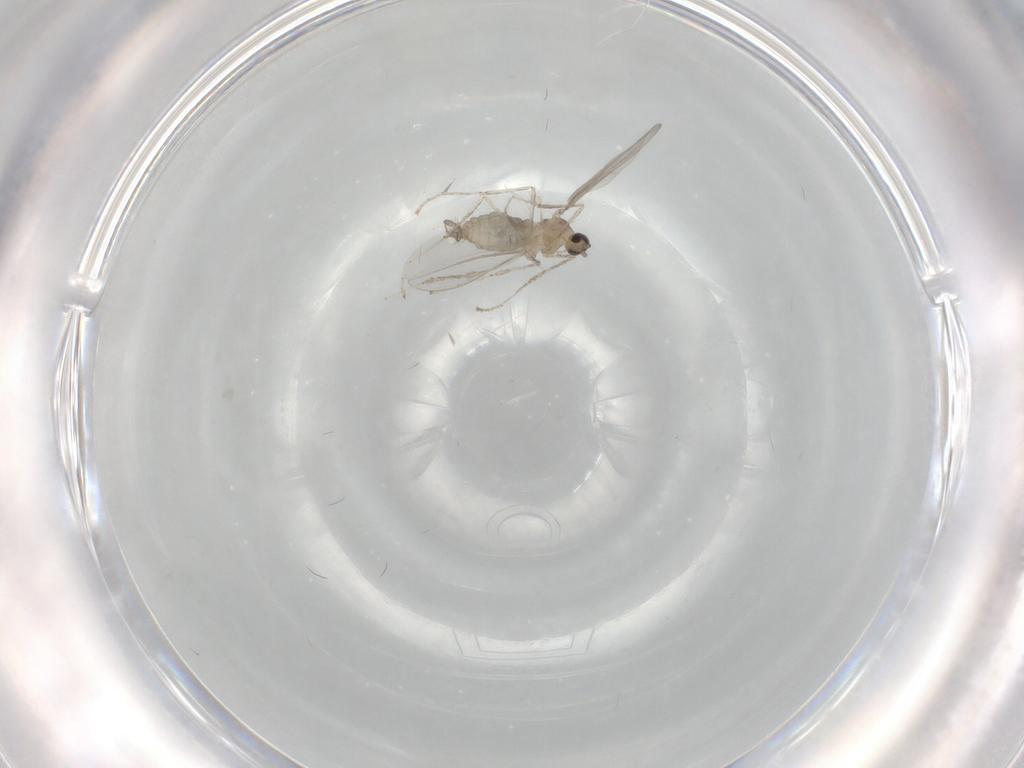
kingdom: Animalia
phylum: Arthropoda
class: Insecta
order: Diptera
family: Cecidomyiidae
